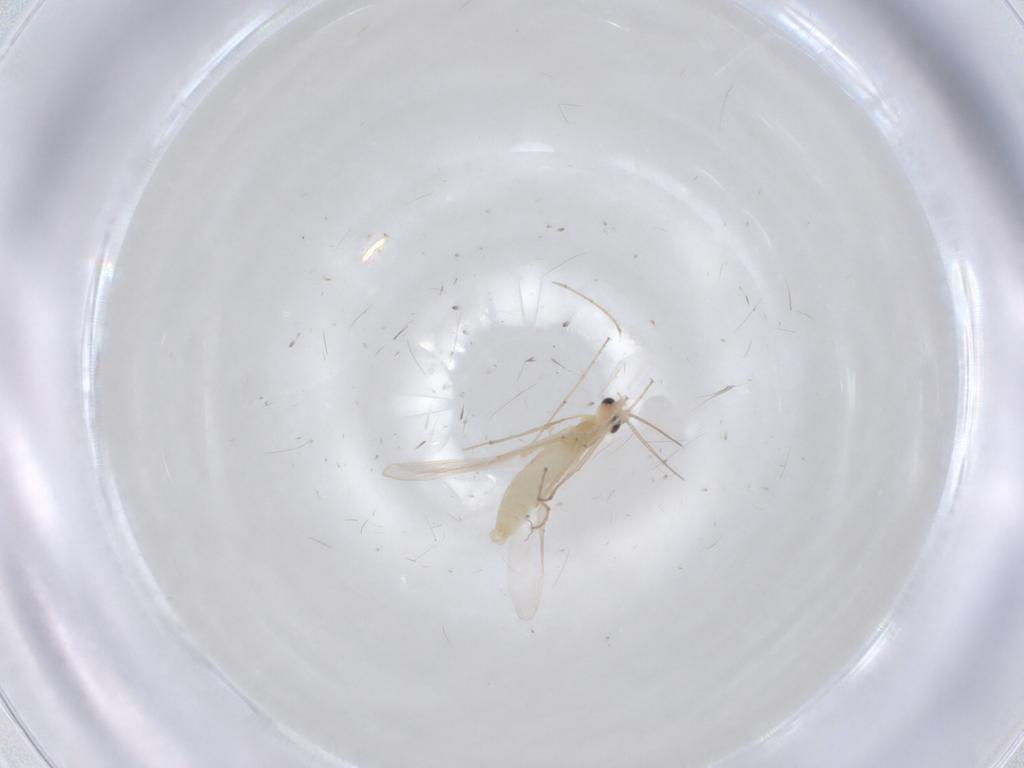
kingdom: Animalia
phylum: Arthropoda
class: Insecta
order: Diptera
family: Chironomidae
